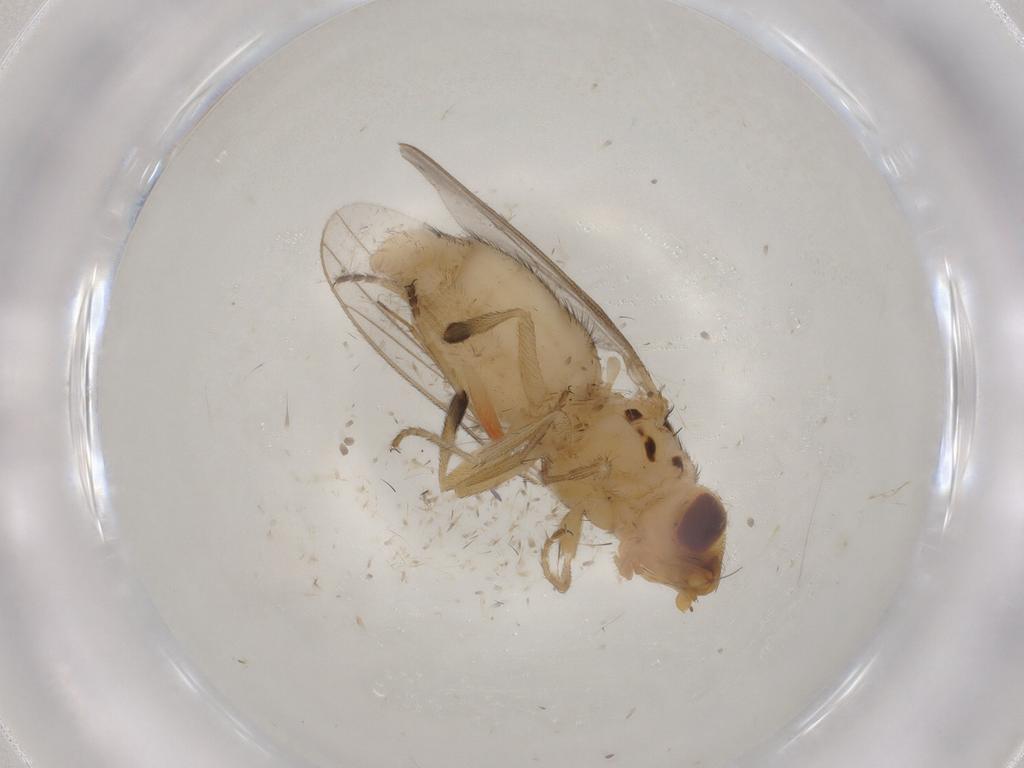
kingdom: Animalia
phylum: Arthropoda
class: Insecta
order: Diptera
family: Chloropidae
